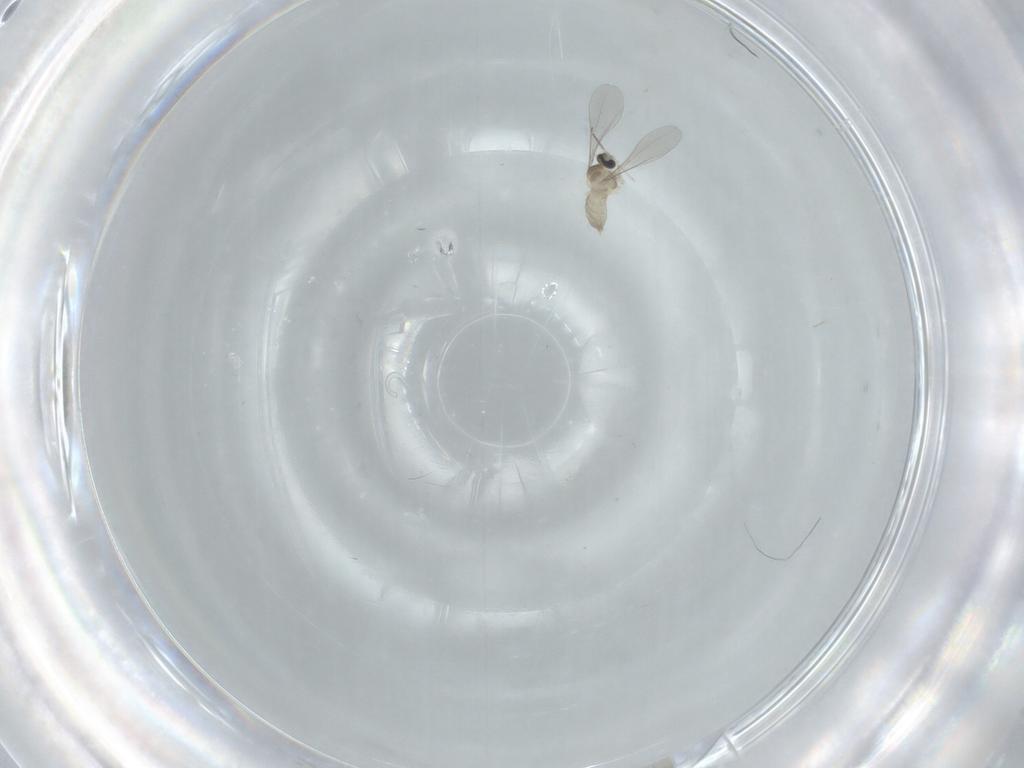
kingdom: Animalia
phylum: Arthropoda
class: Insecta
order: Diptera
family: Cecidomyiidae
